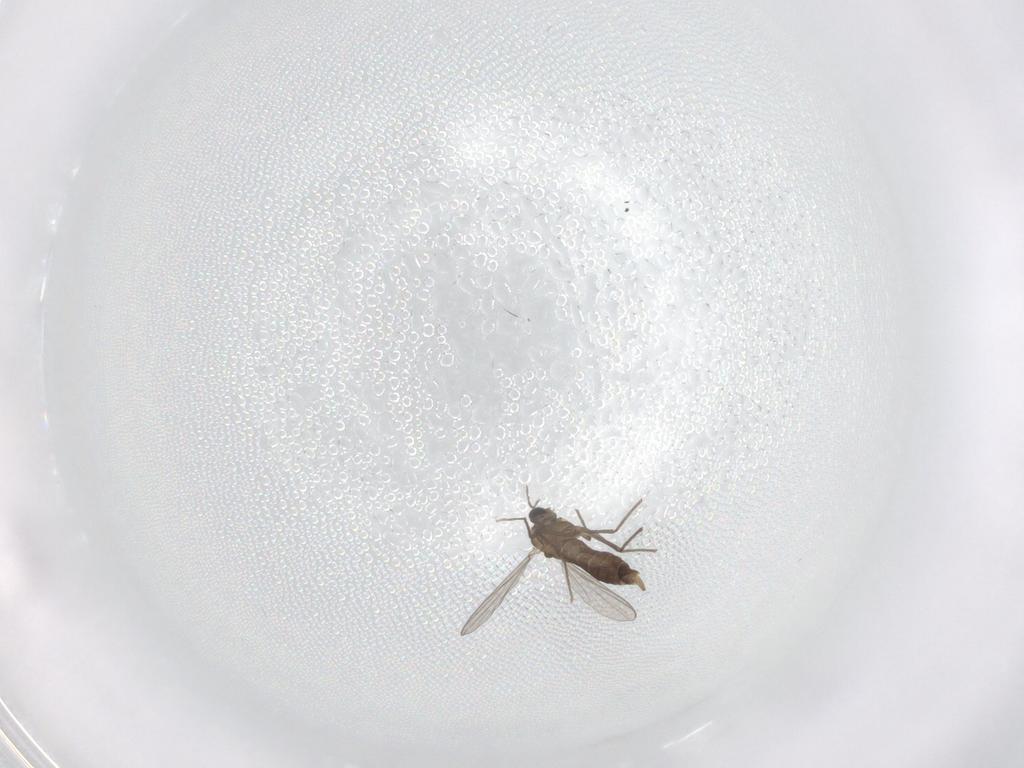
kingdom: Animalia
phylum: Arthropoda
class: Insecta
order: Diptera
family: Chironomidae
